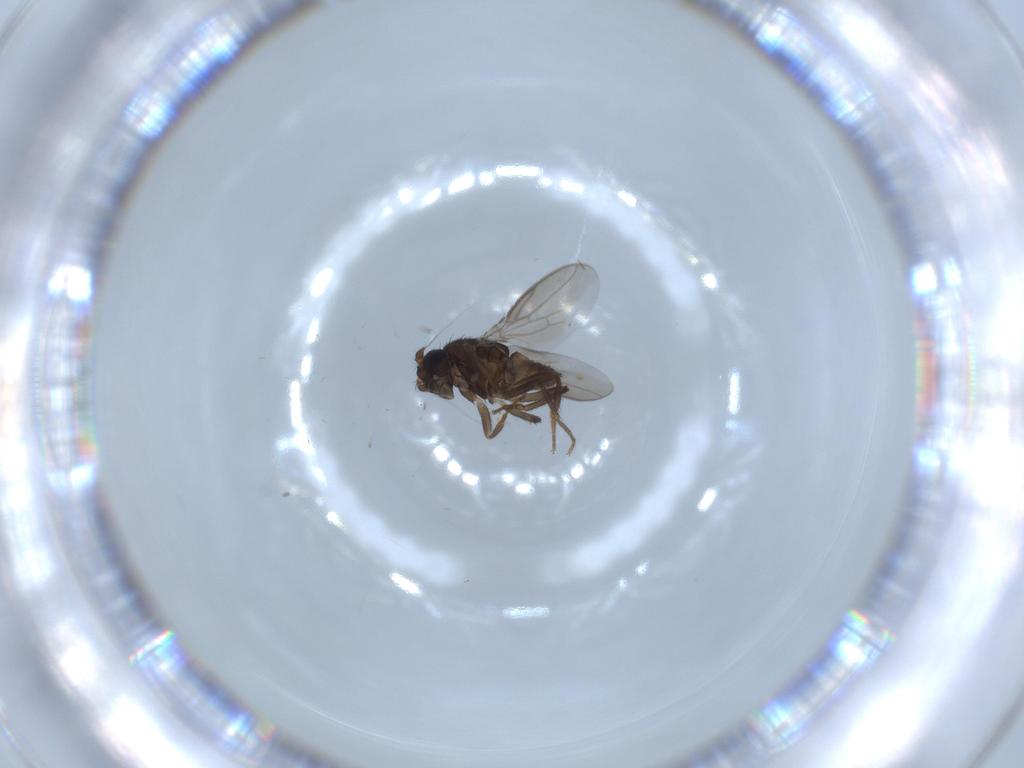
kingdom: Animalia
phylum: Arthropoda
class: Insecta
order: Diptera
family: Sphaeroceridae
